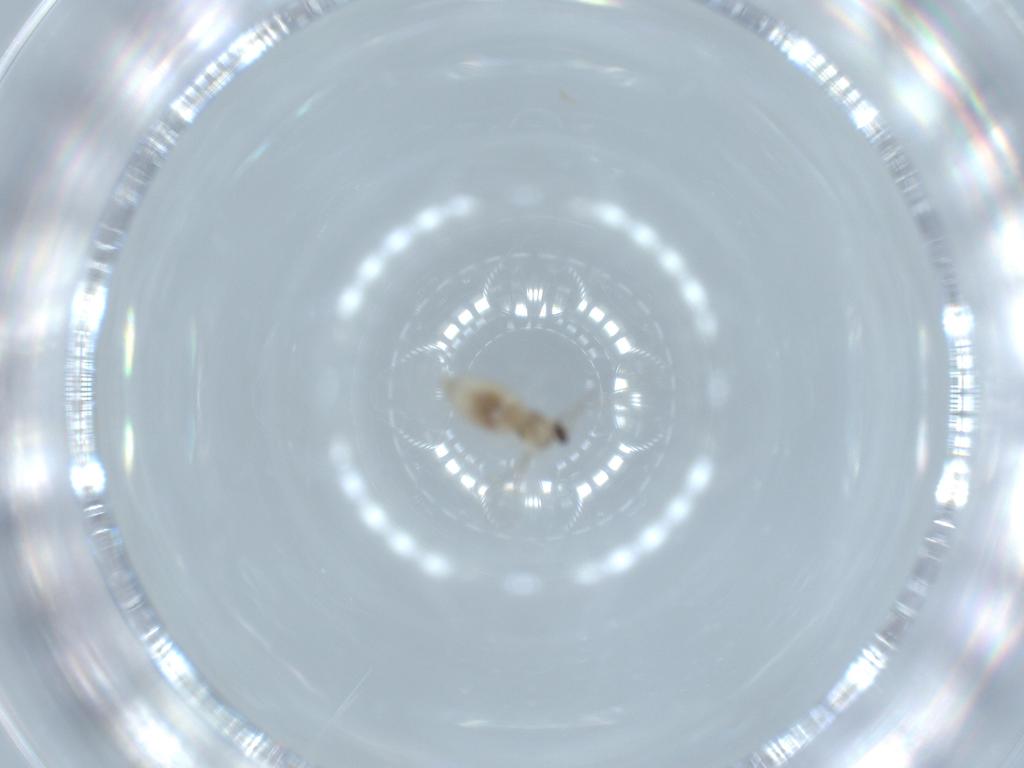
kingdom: Animalia
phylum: Arthropoda
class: Insecta
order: Diptera
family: Chloropidae
